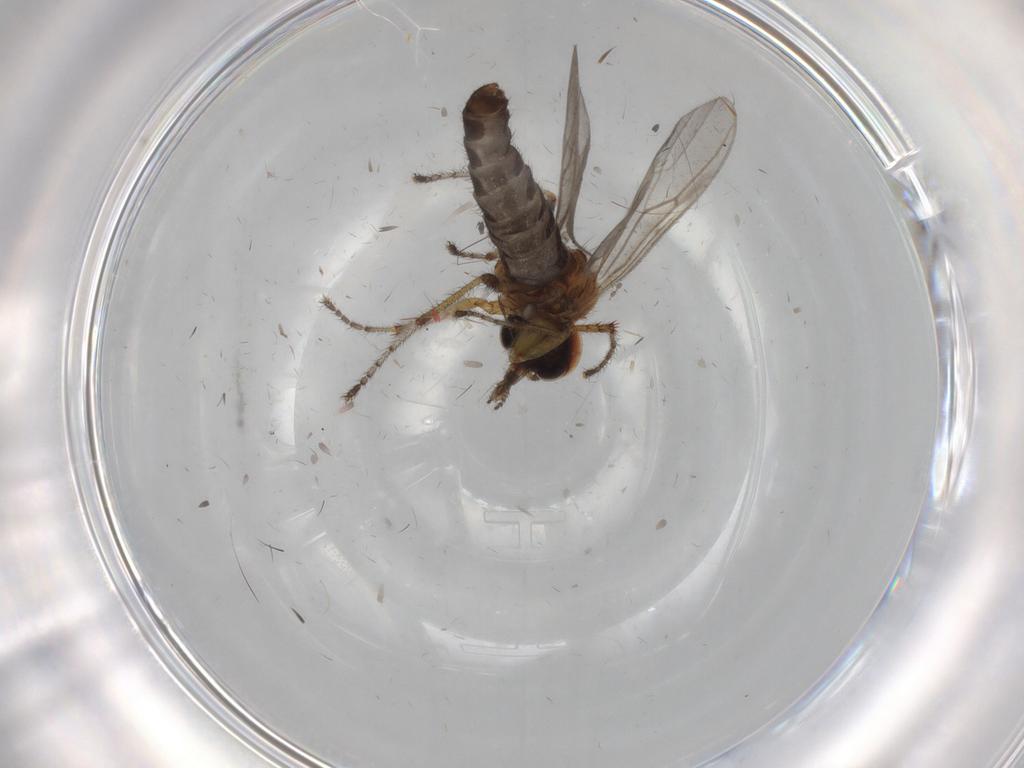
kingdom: Animalia
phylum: Arthropoda
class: Insecta
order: Diptera
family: Bibionidae
